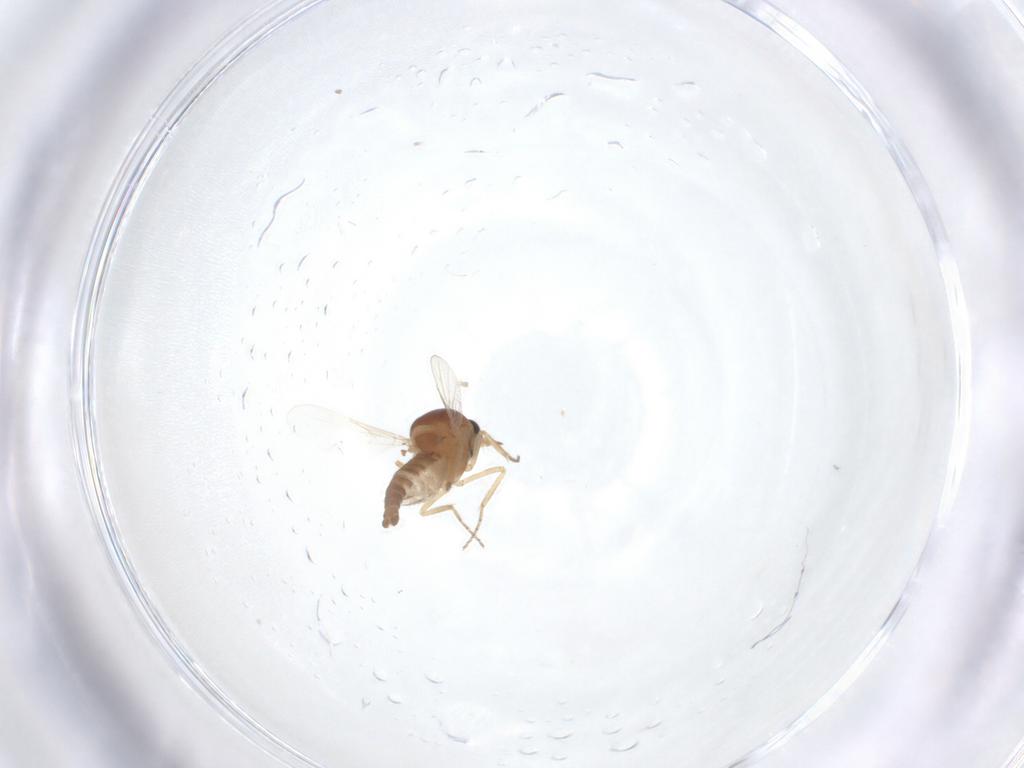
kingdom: Animalia
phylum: Arthropoda
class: Insecta
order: Diptera
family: Psychodidae
